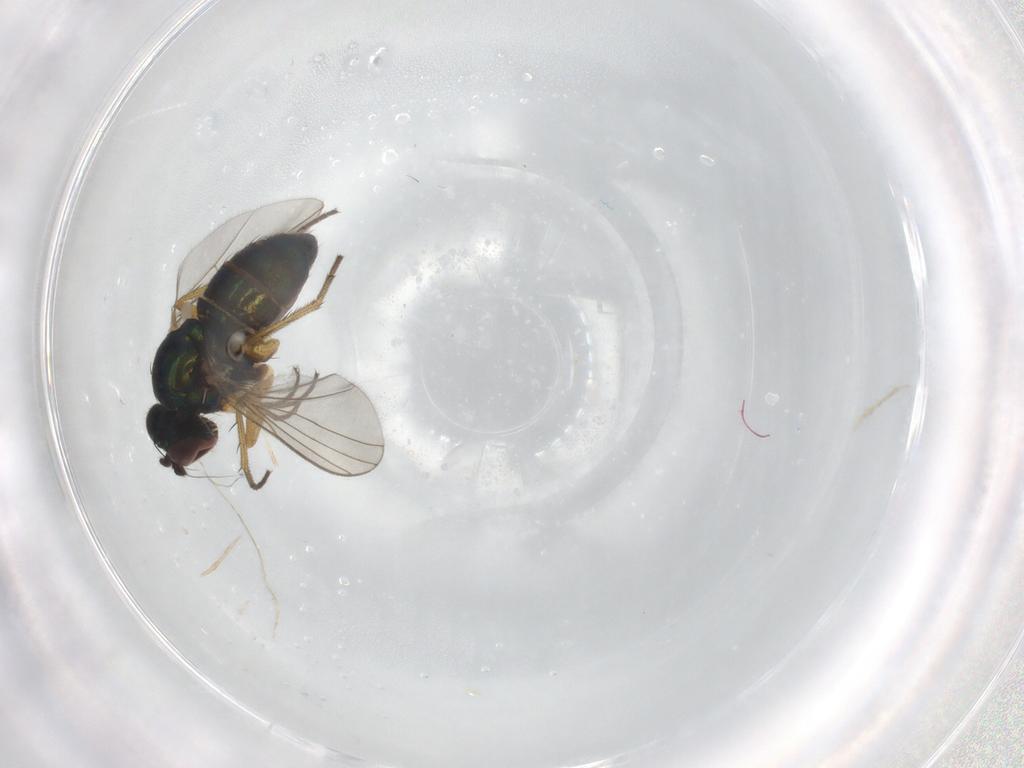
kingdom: Animalia
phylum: Arthropoda
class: Insecta
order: Diptera
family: Cecidomyiidae
